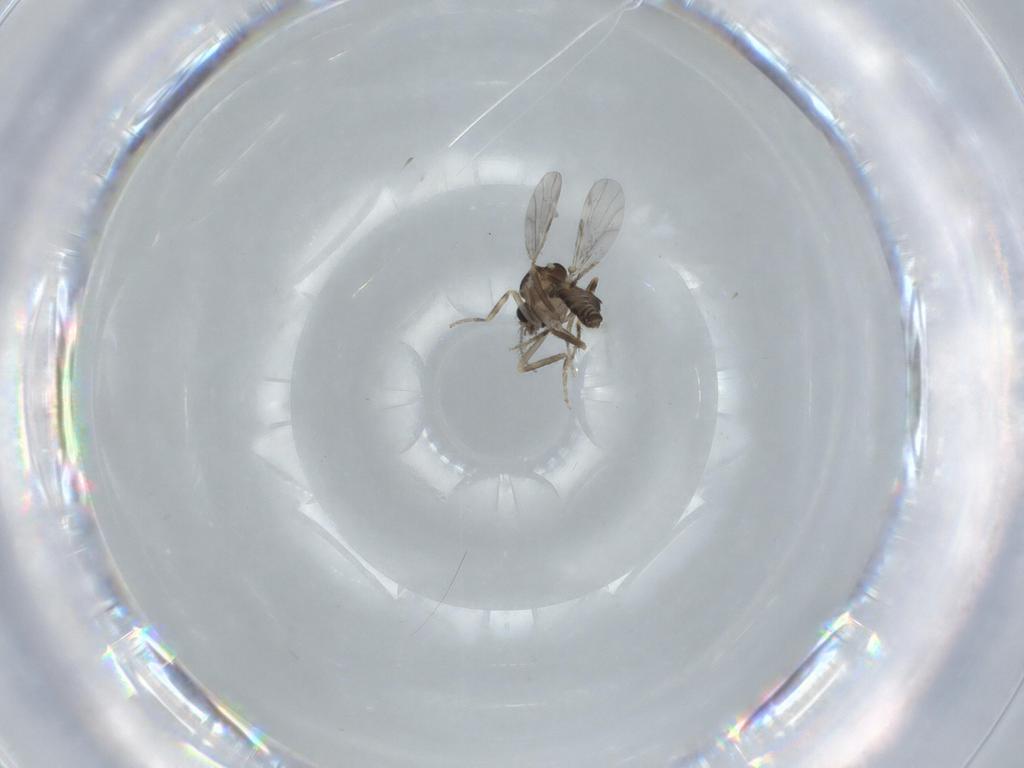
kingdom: Animalia
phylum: Arthropoda
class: Insecta
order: Diptera
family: Ceratopogonidae
